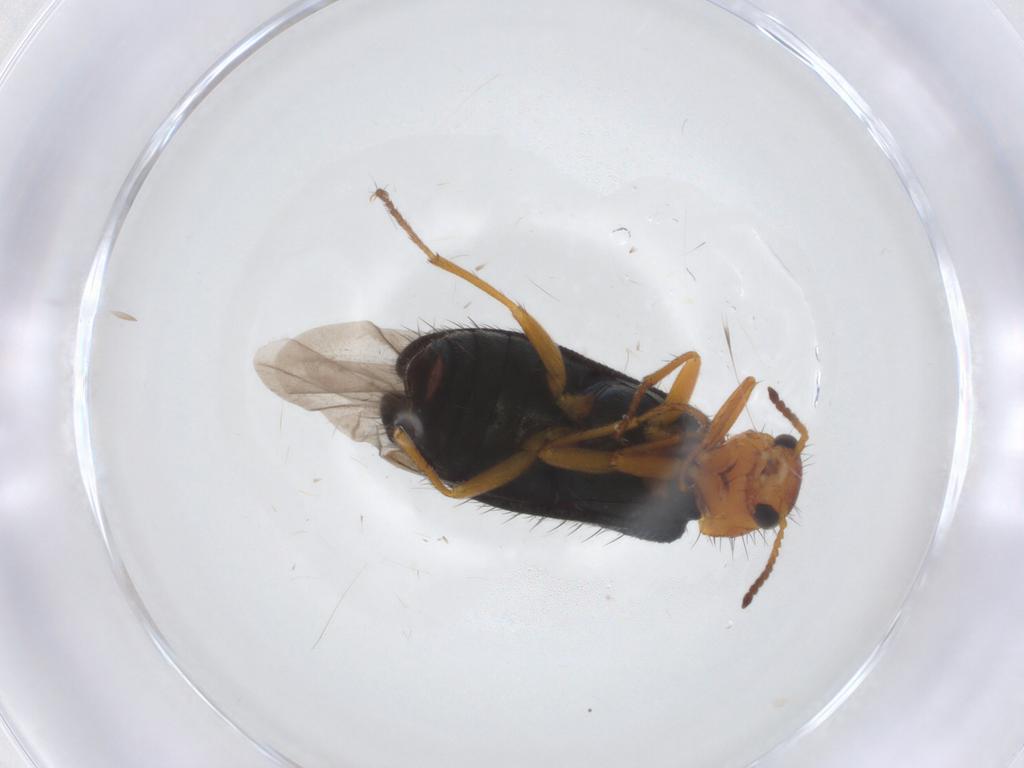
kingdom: Animalia
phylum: Arthropoda
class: Insecta
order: Coleoptera
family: Melyridae
